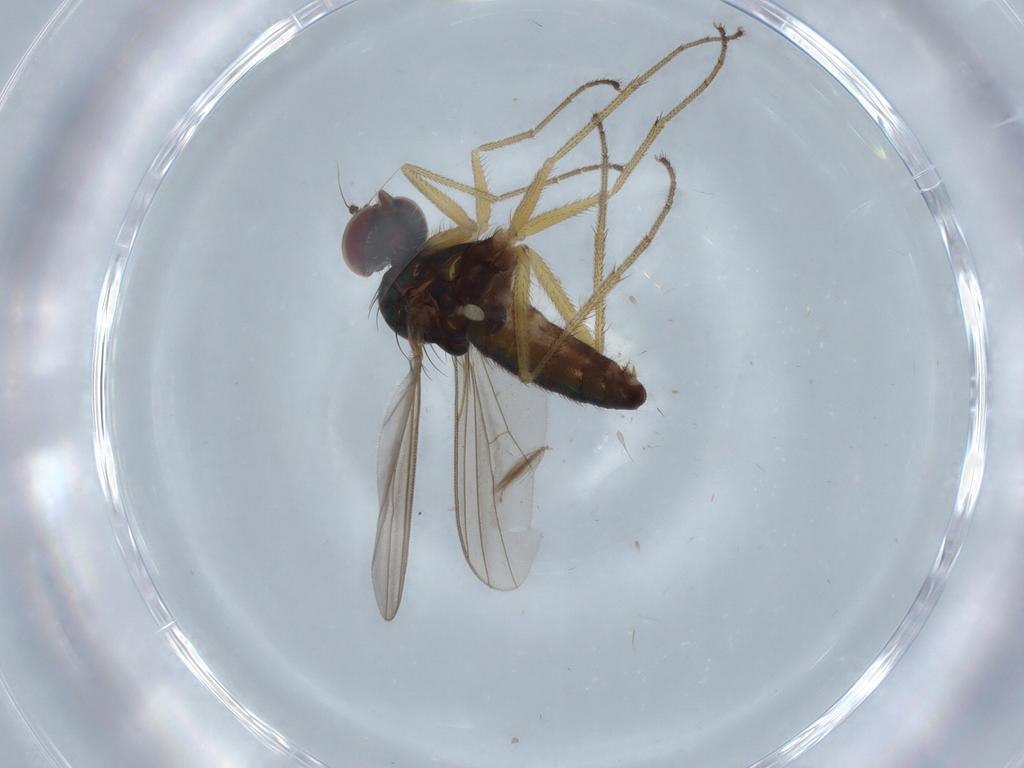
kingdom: Animalia
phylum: Arthropoda
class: Insecta
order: Diptera
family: Dolichopodidae
